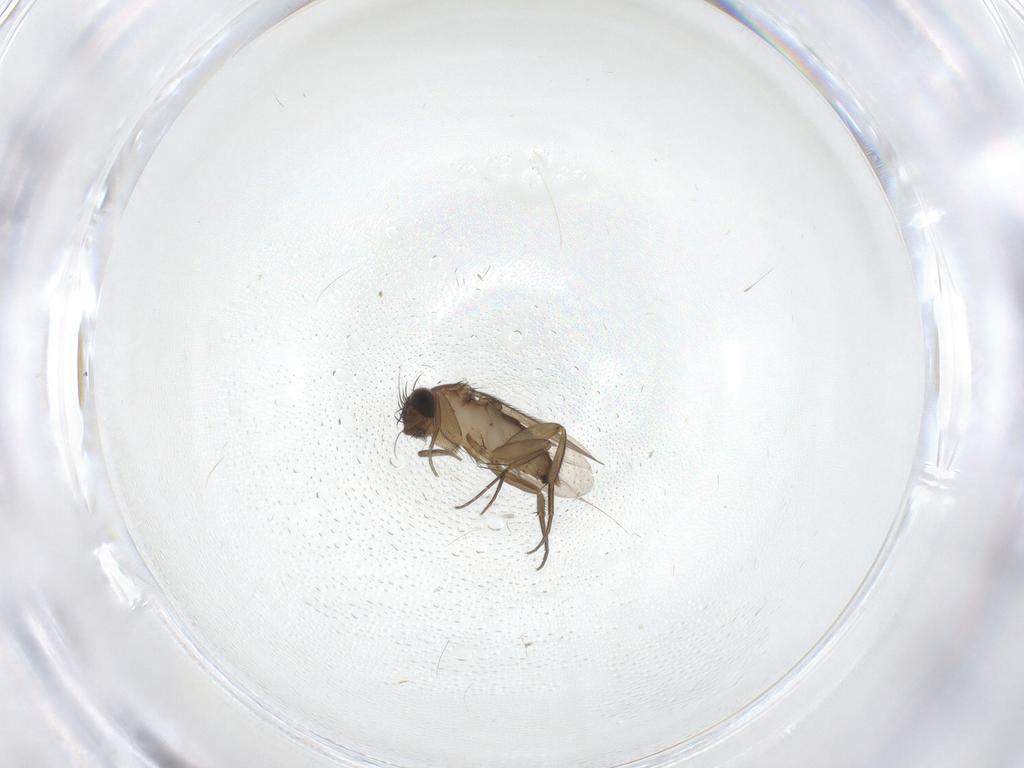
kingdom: Animalia
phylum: Arthropoda
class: Insecta
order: Diptera
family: Phoridae
